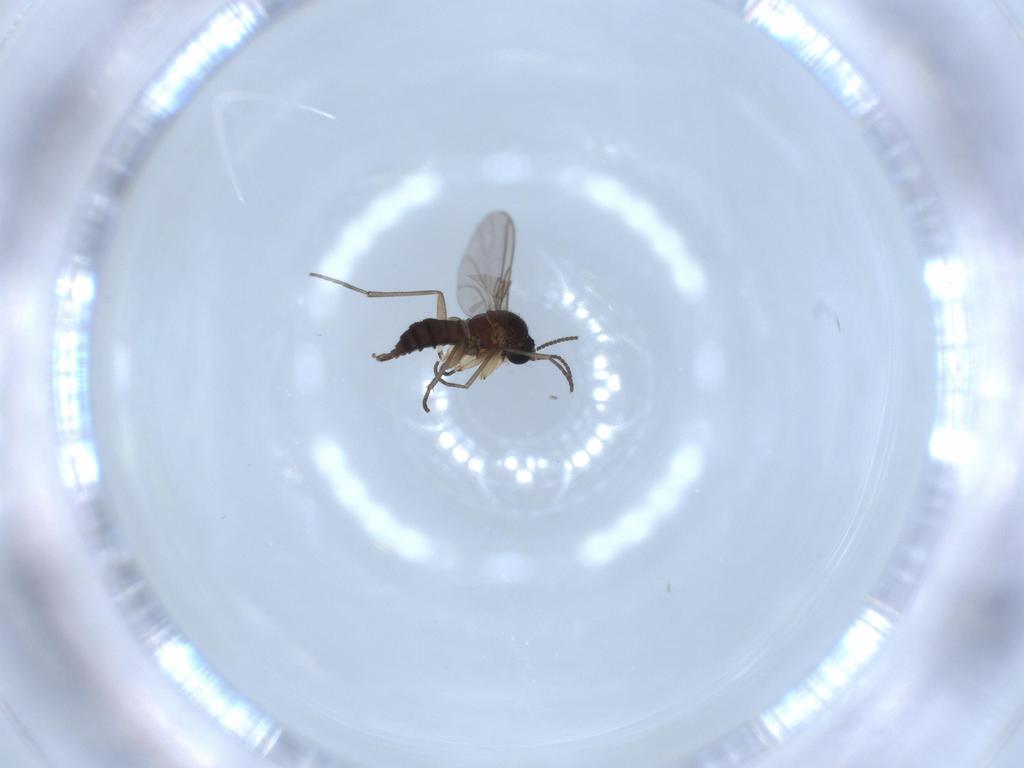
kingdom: Animalia
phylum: Arthropoda
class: Insecta
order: Diptera
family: Sciaridae
